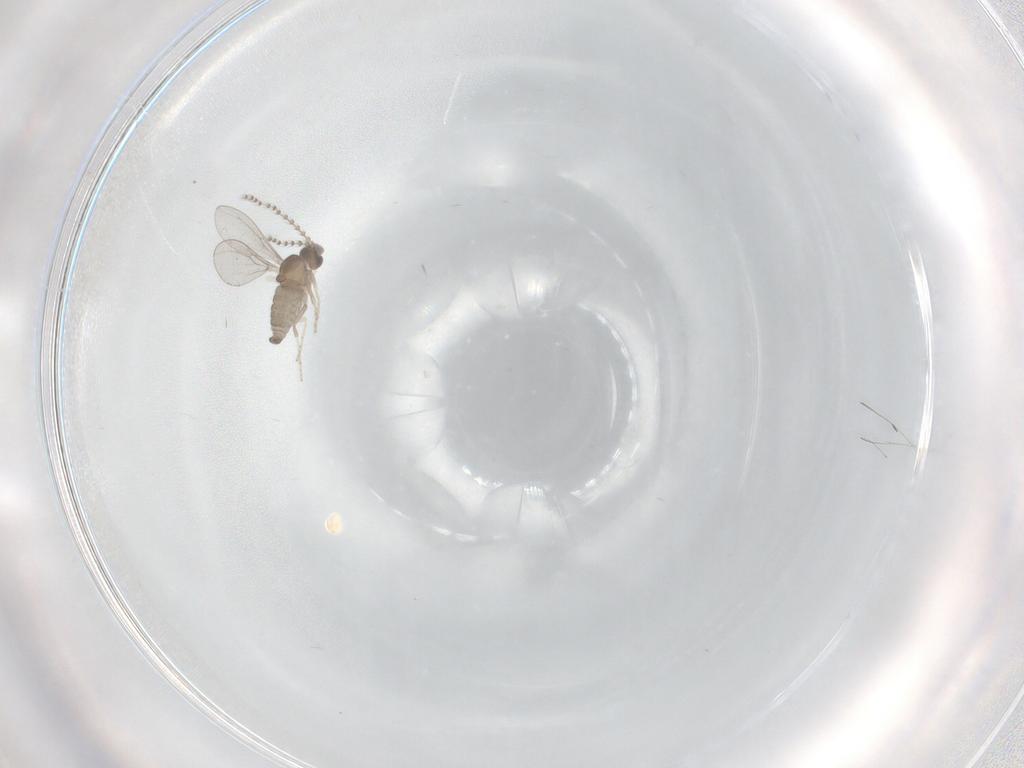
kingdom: Animalia
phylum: Arthropoda
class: Insecta
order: Diptera
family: Cecidomyiidae
